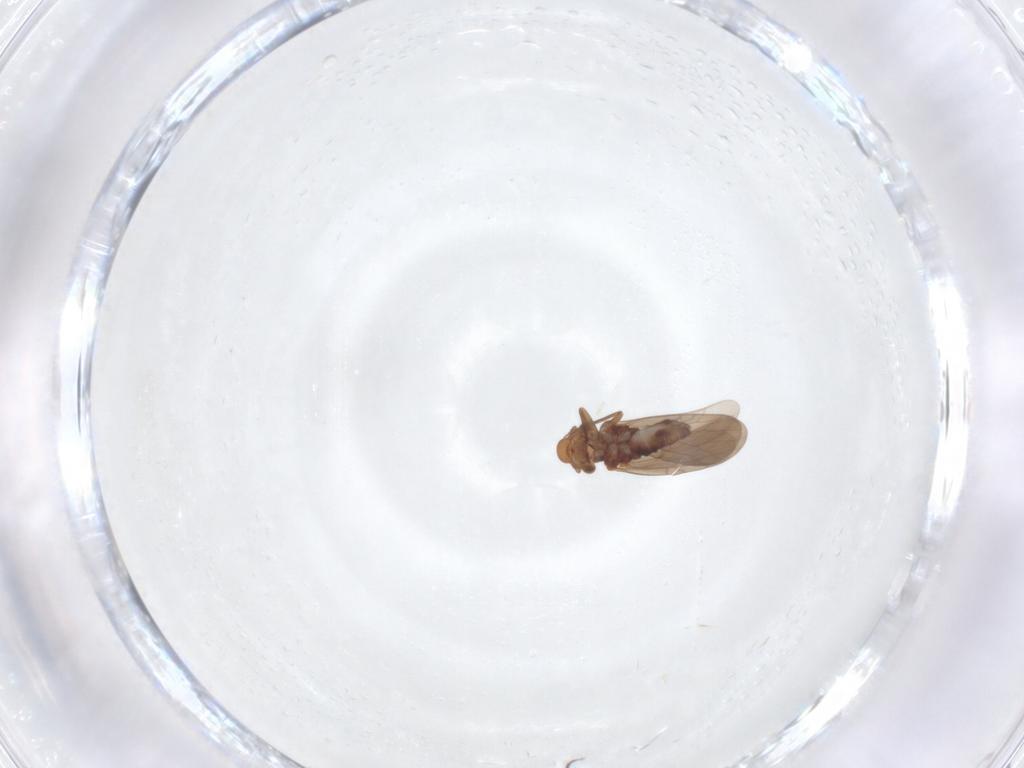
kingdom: Animalia
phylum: Arthropoda
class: Insecta
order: Psocodea
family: Lepidopsocidae
